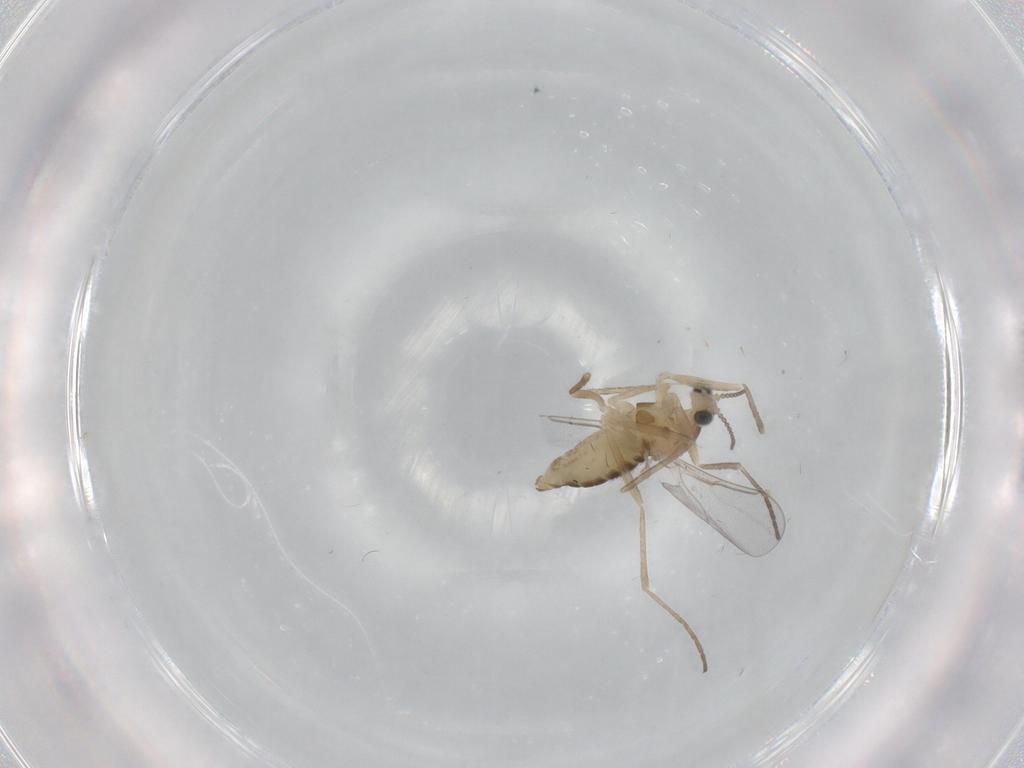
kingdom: Animalia
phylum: Arthropoda
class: Insecta
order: Diptera
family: Cecidomyiidae
